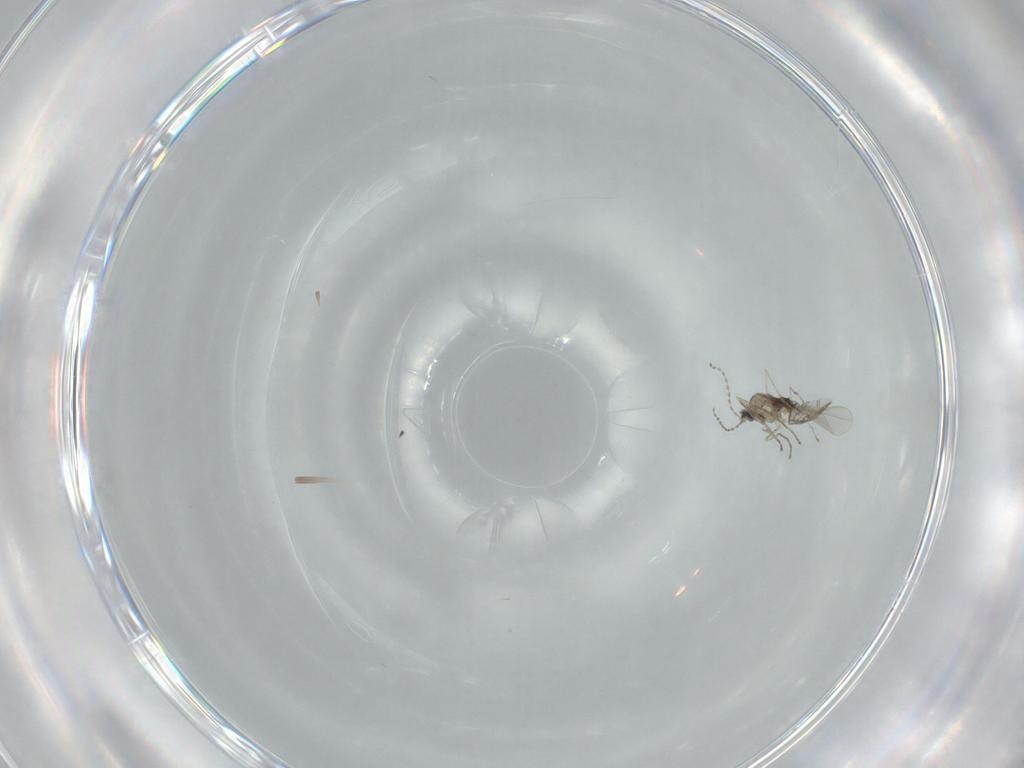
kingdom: Animalia
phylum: Arthropoda
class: Insecta
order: Diptera
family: Cecidomyiidae
